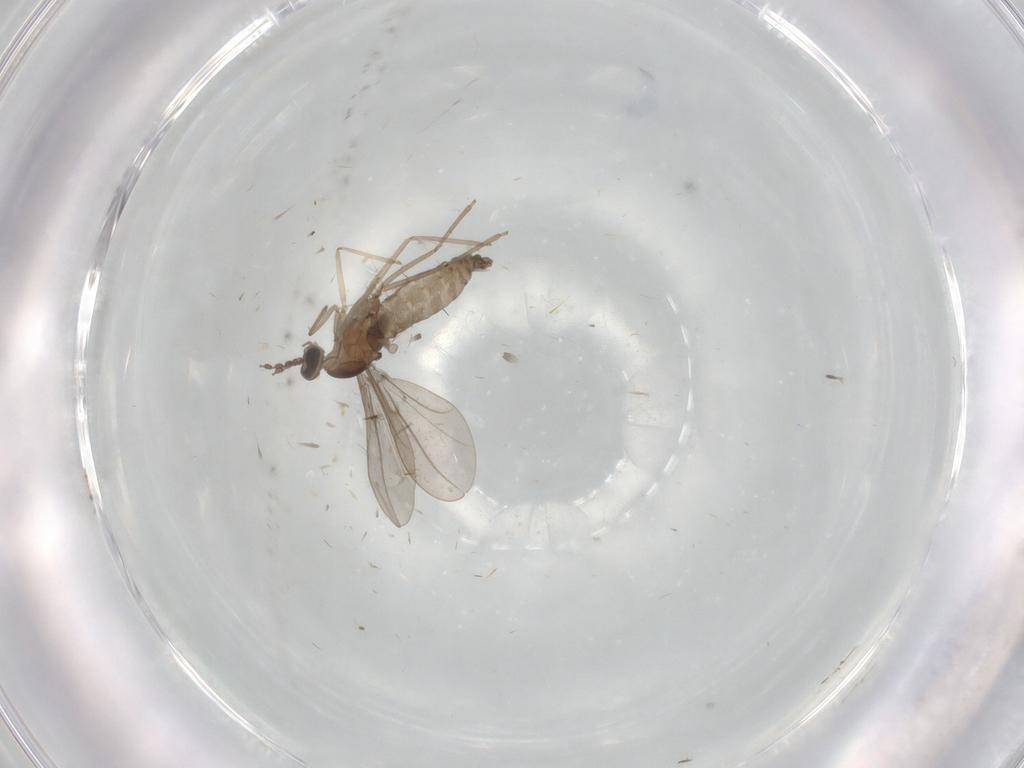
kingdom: Animalia
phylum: Arthropoda
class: Insecta
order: Diptera
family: Cecidomyiidae
